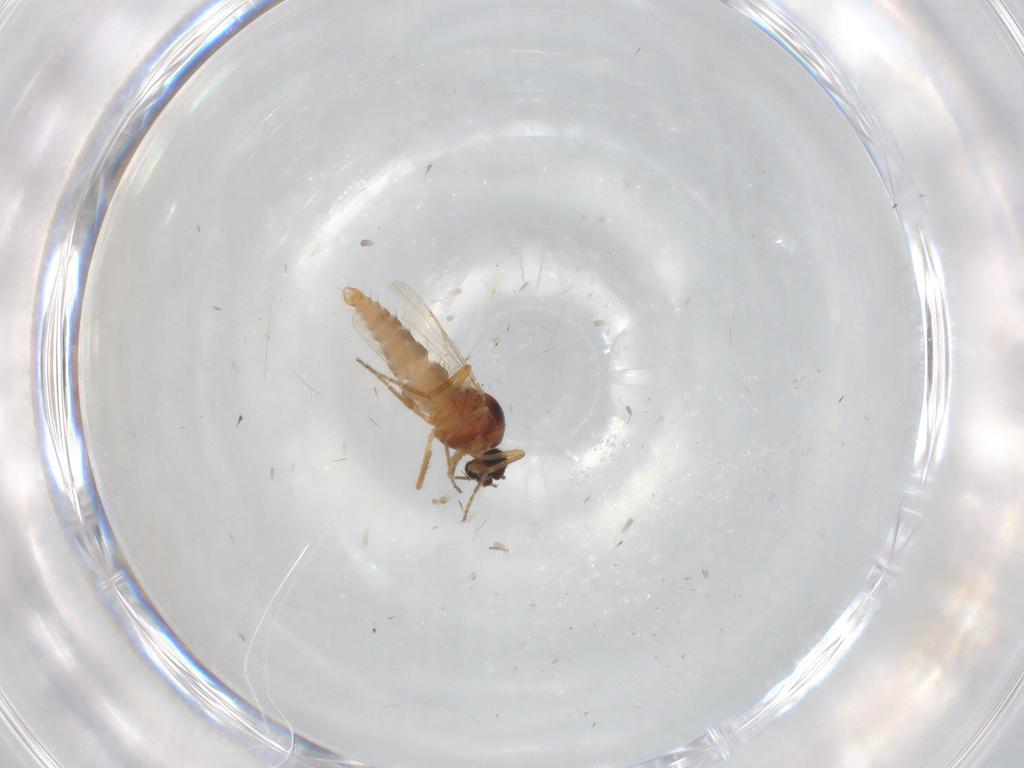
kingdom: Animalia
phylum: Arthropoda
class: Insecta
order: Diptera
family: Ceratopogonidae
